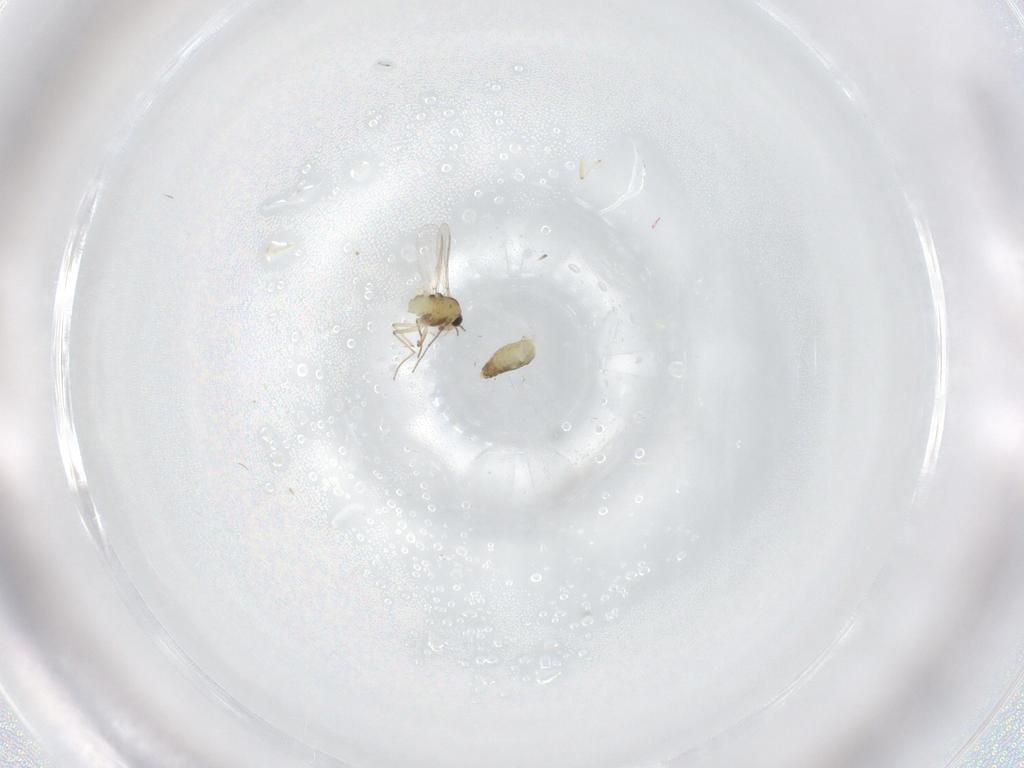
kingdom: Animalia
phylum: Arthropoda
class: Insecta
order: Diptera
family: Chironomidae
